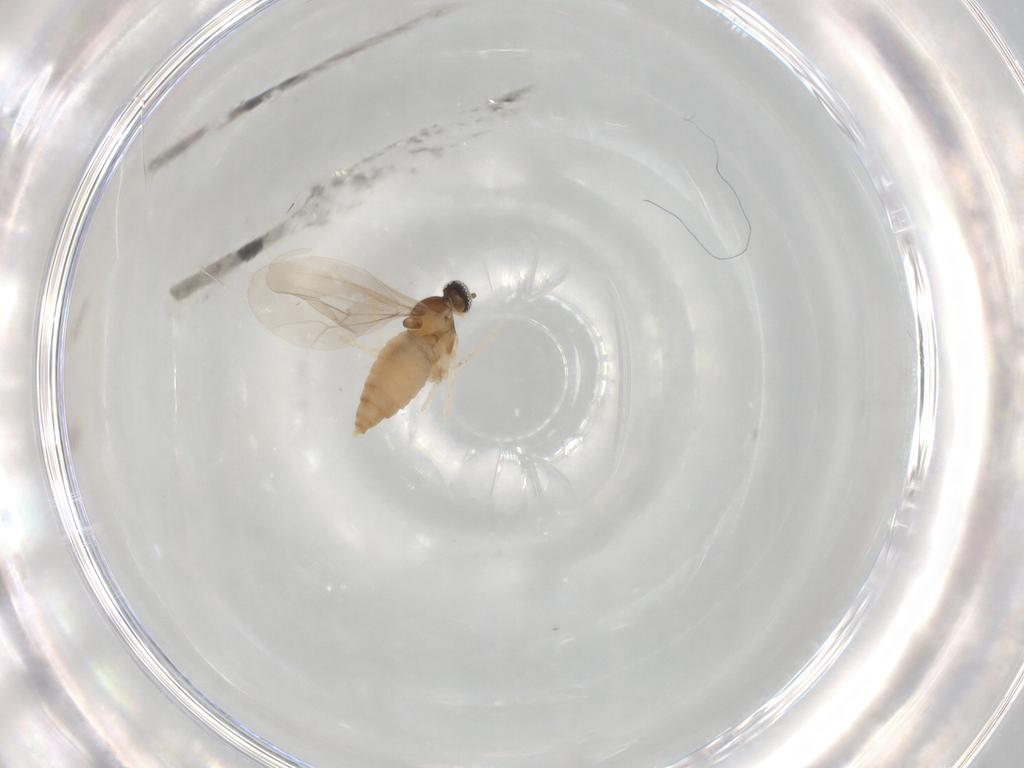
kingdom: Animalia
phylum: Arthropoda
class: Insecta
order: Diptera
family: Cecidomyiidae
